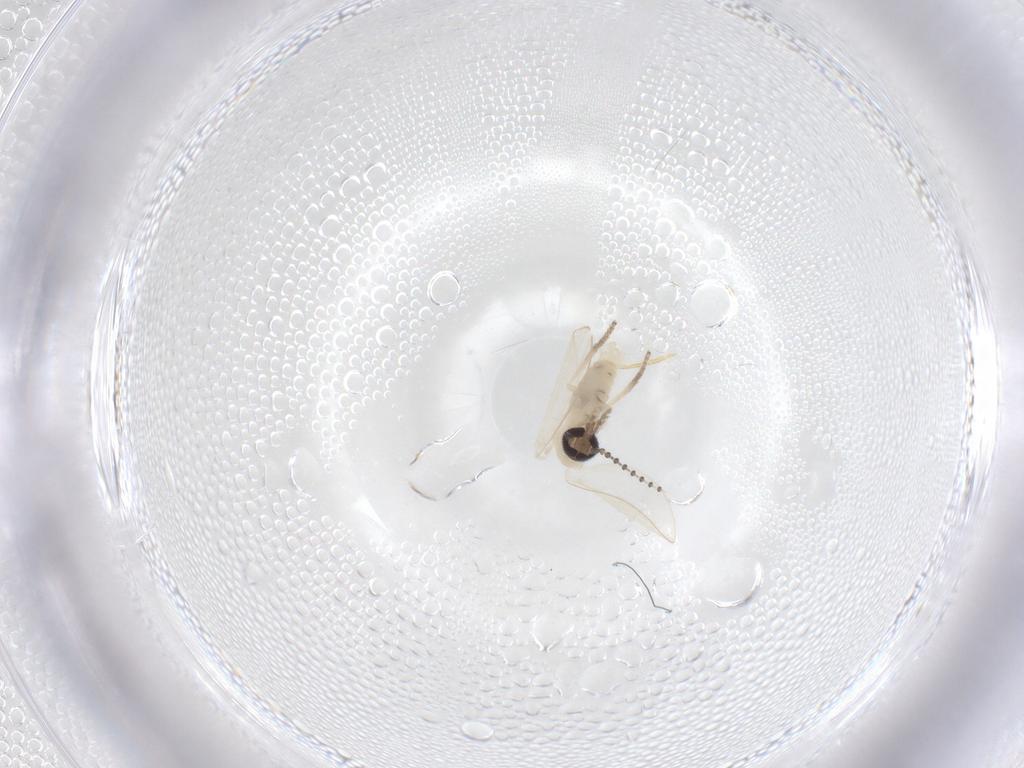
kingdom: Animalia
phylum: Arthropoda
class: Insecta
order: Diptera
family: Psychodidae
